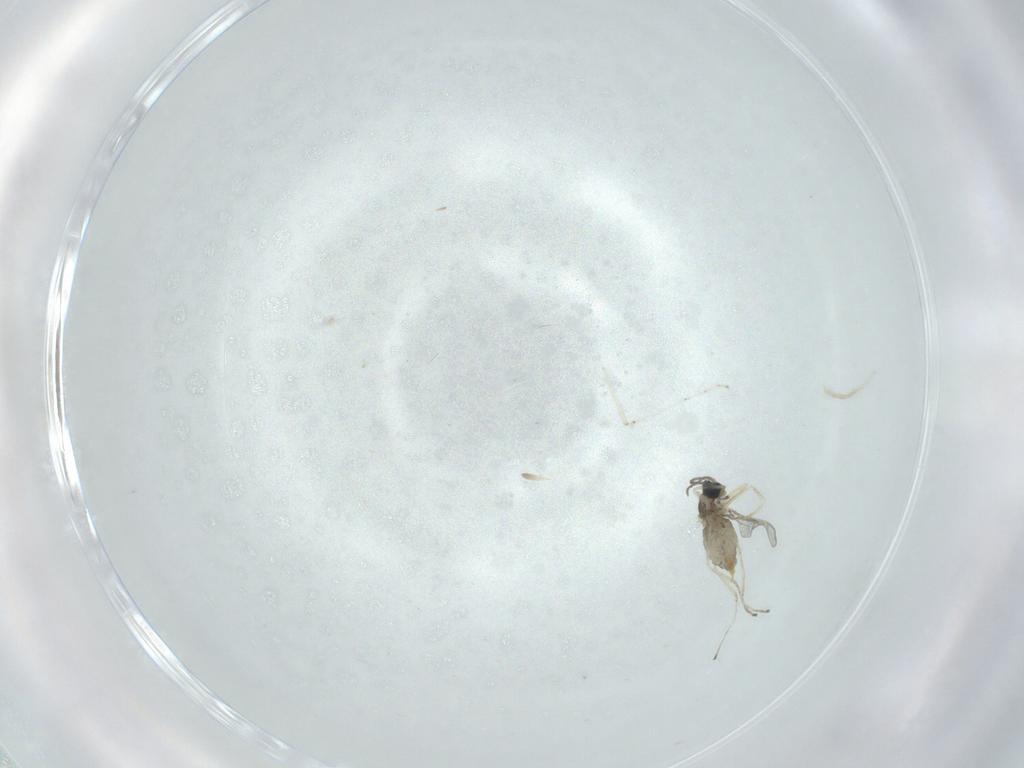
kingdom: Animalia
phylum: Arthropoda
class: Insecta
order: Diptera
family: Cecidomyiidae
